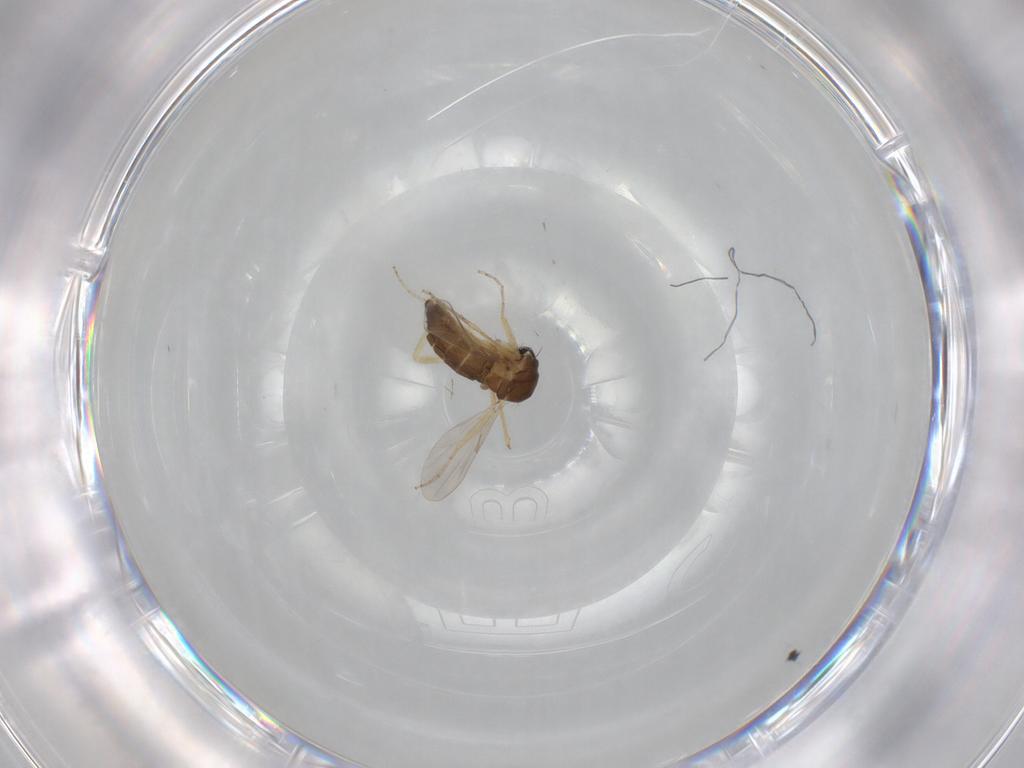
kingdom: Animalia
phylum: Arthropoda
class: Insecta
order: Diptera
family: Ceratopogonidae
